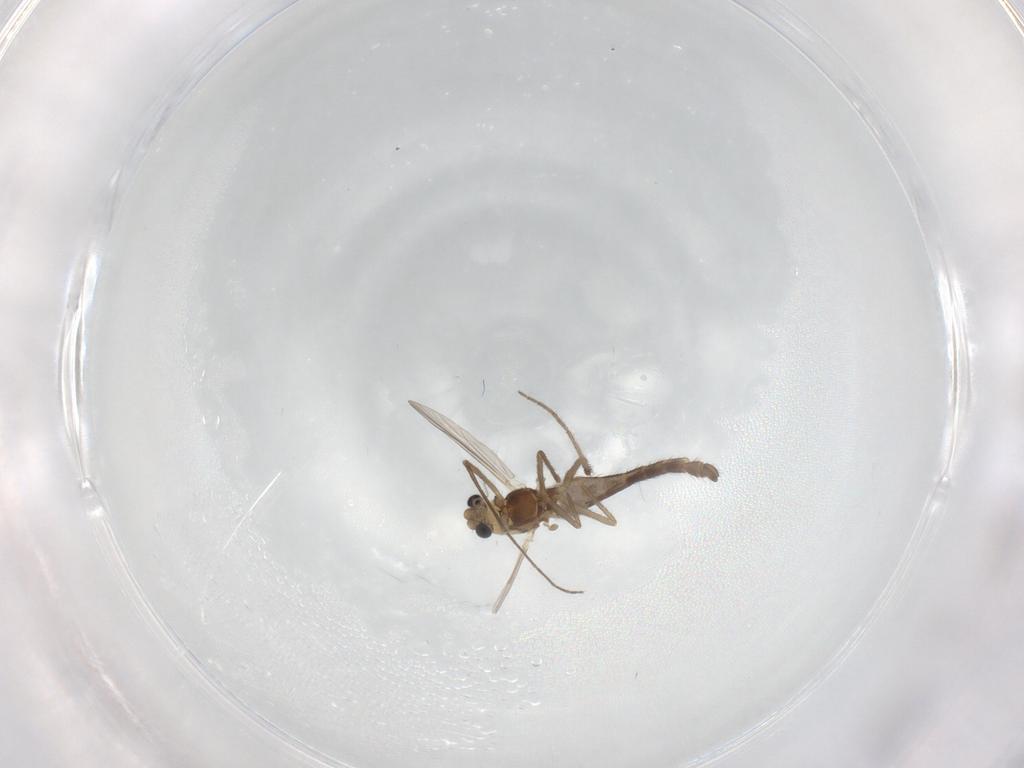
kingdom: Animalia
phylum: Arthropoda
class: Insecta
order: Diptera
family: Chironomidae
